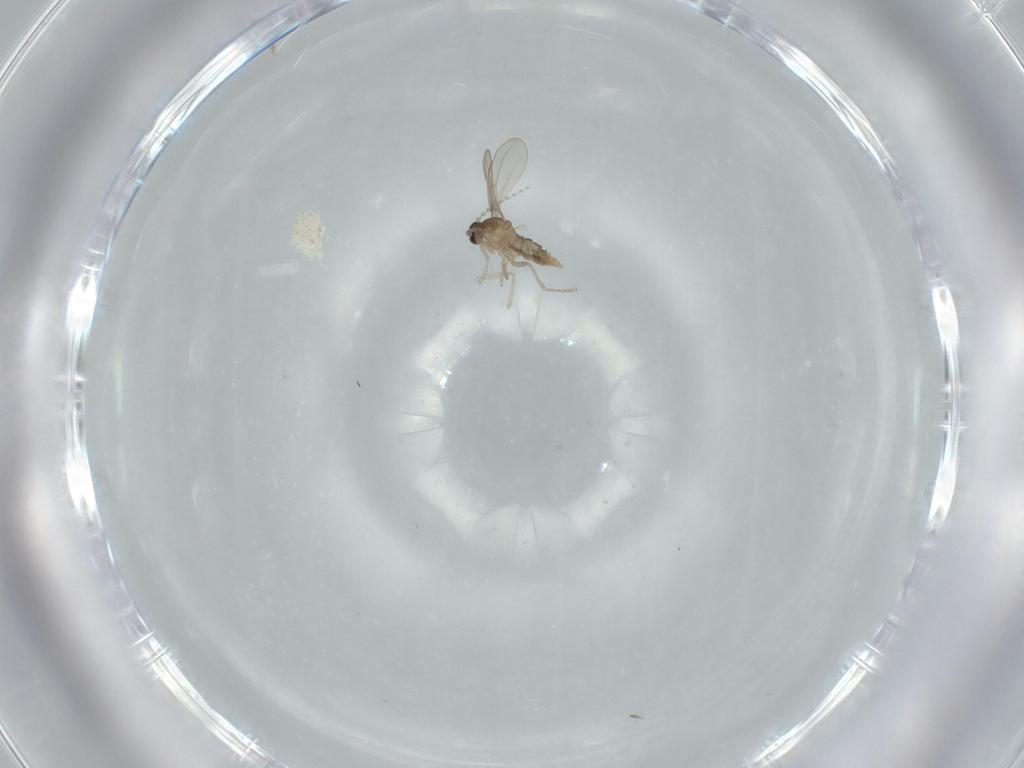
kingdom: Animalia
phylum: Arthropoda
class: Insecta
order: Diptera
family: Cecidomyiidae
